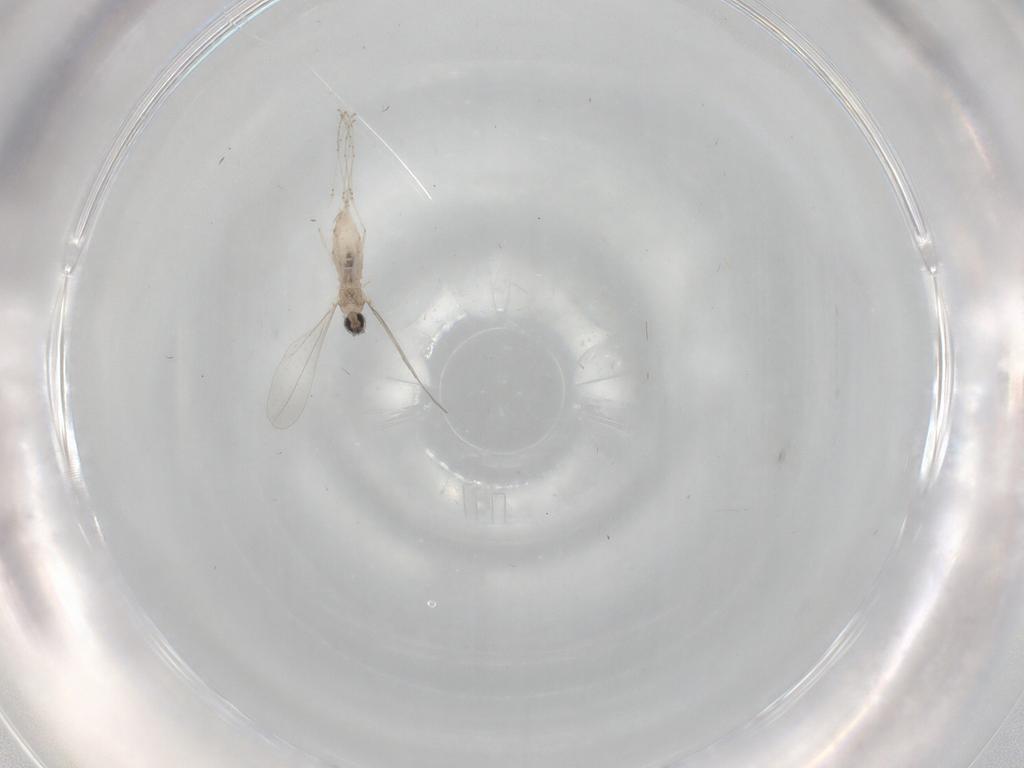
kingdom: Animalia
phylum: Arthropoda
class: Insecta
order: Diptera
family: Cecidomyiidae
